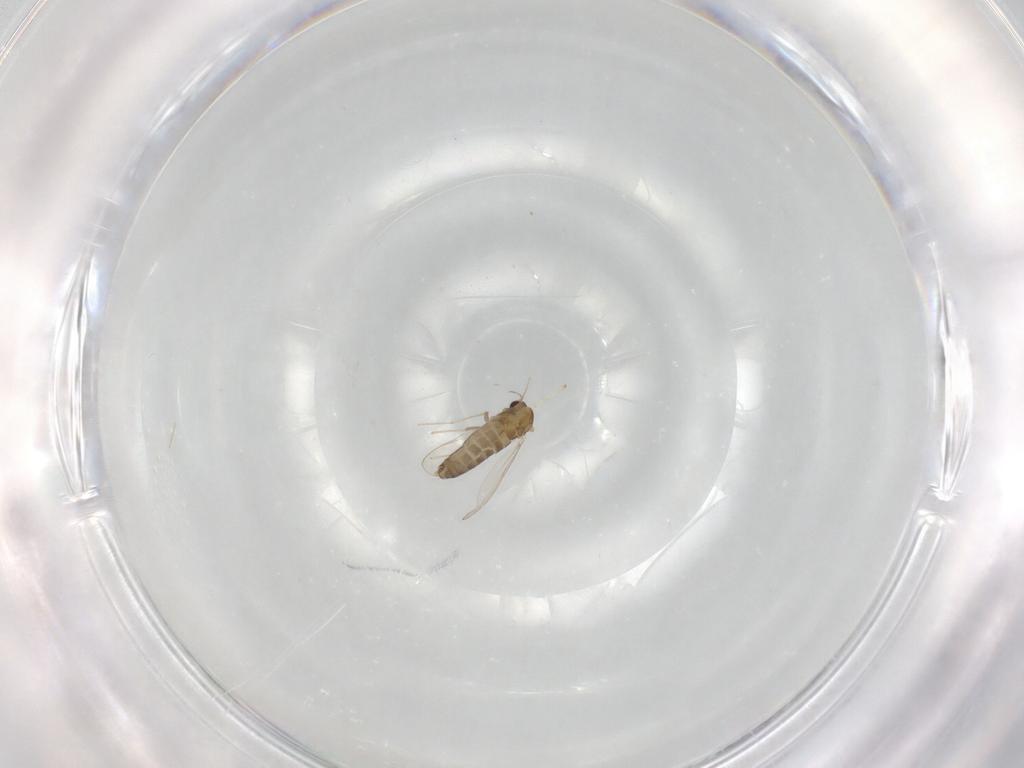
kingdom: Animalia
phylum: Arthropoda
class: Insecta
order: Diptera
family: Chironomidae
